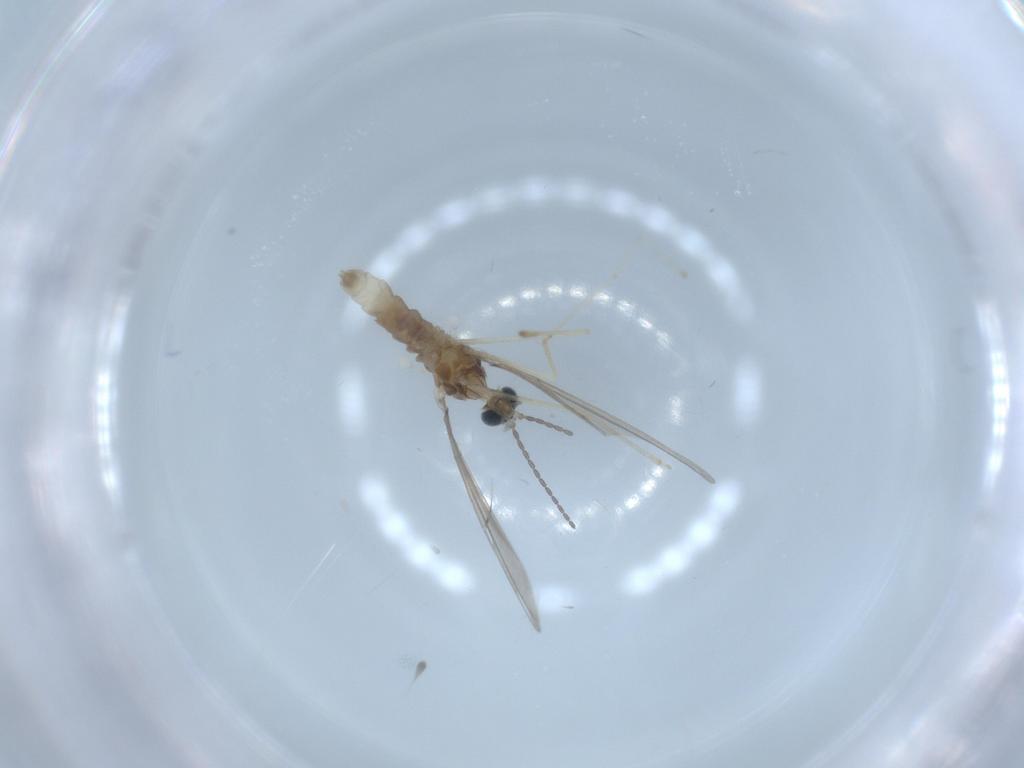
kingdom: Animalia
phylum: Arthropoda
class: Insecta
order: Diptera
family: Cecidomyiidae
